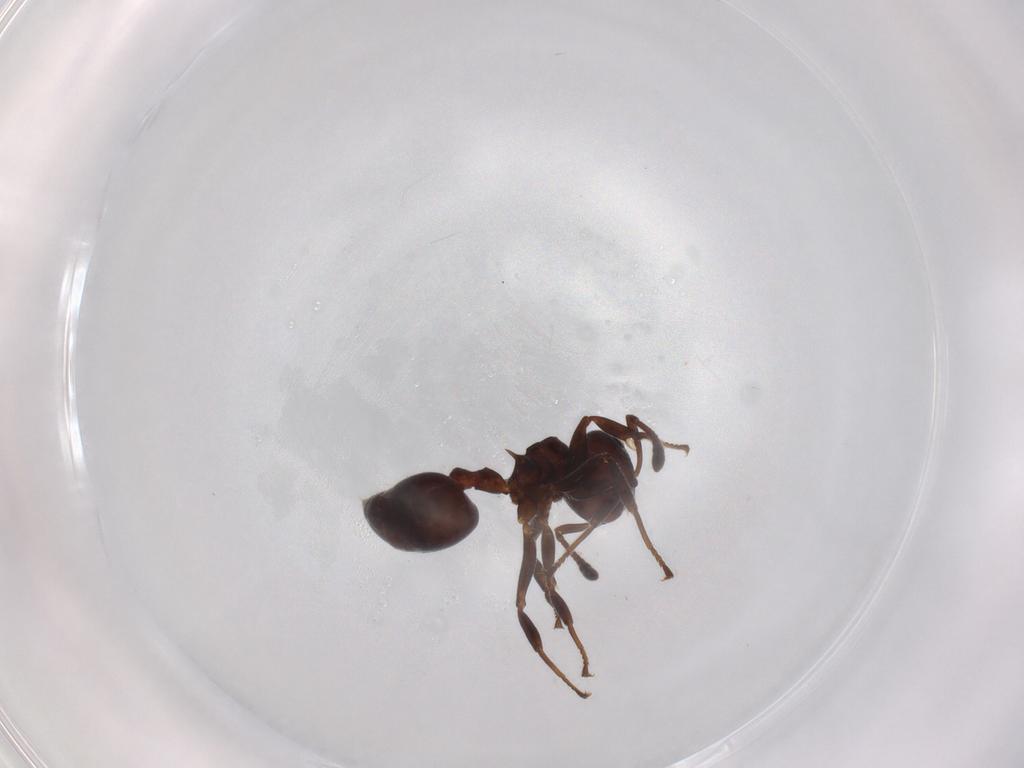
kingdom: Animalia
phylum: Arthropoda
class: Insecta
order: Hymenoptera
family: Formicidae
